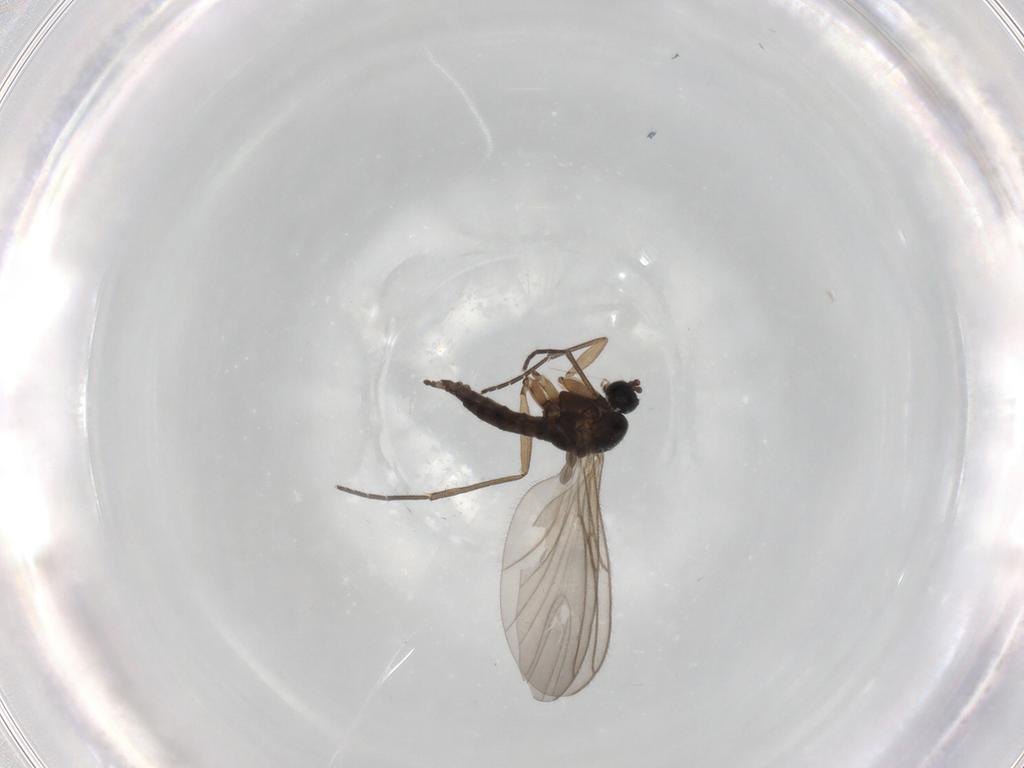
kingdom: Animalia
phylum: Arthropoda
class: Insecta
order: Diptera
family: Sciaridae
